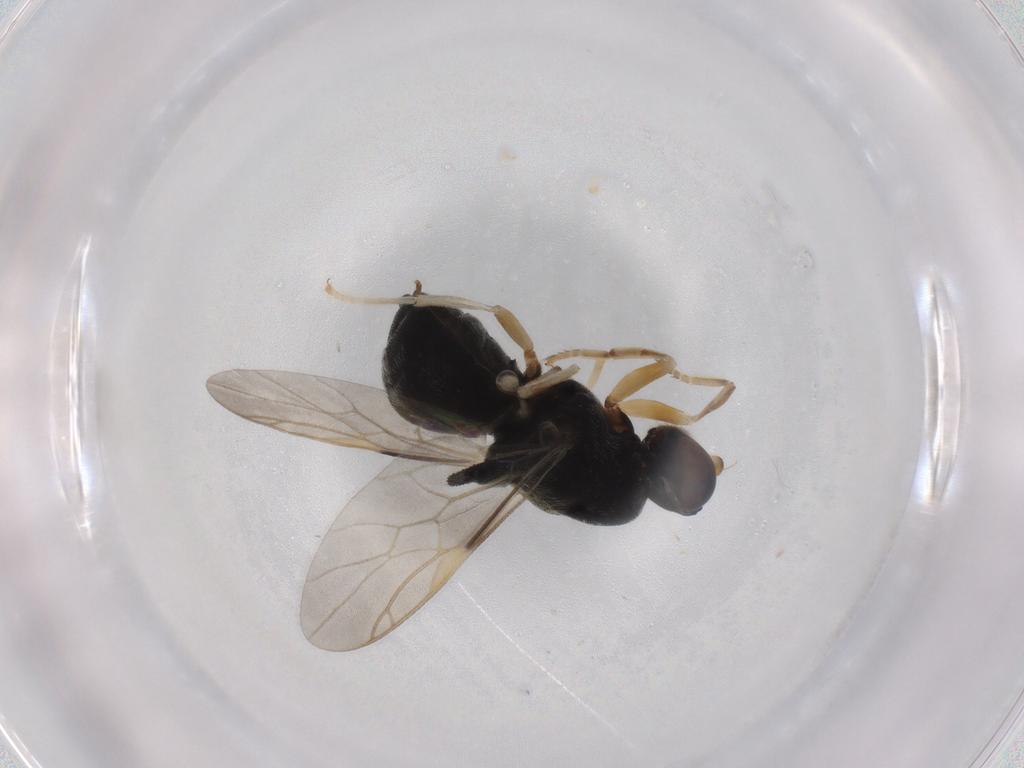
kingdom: Animalia
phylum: Arthropoda
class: Insecta
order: Diptera
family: Stratiomyidae
